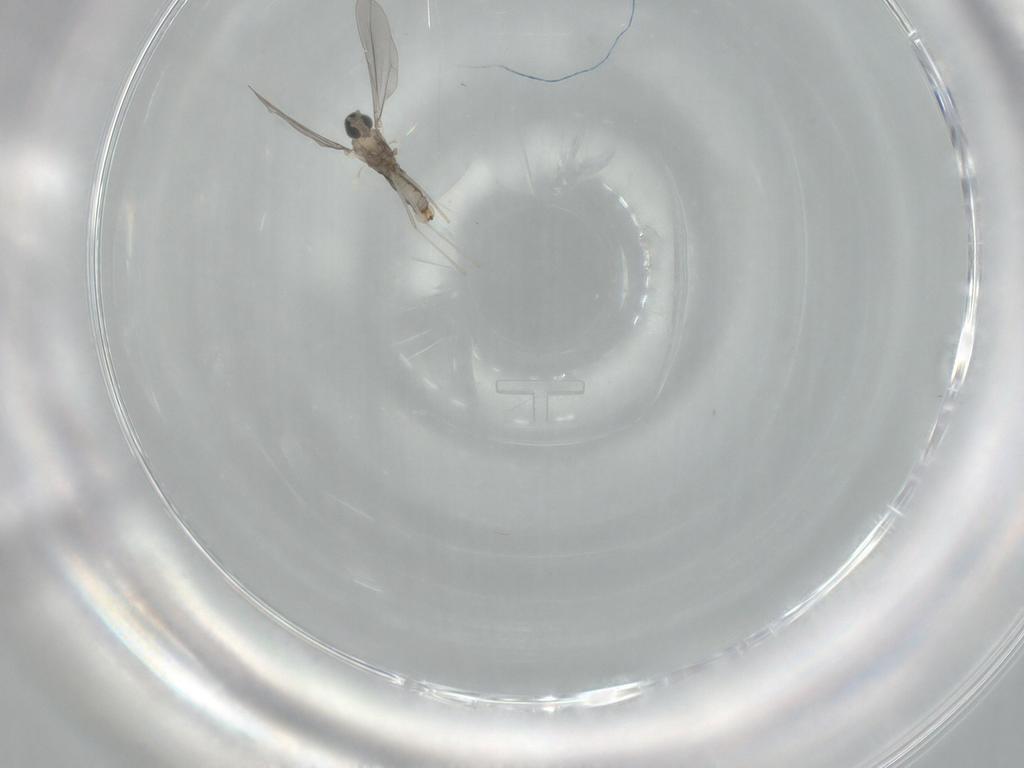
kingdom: Animalia
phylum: Arthropoda
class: Insecta
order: Diptera
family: Cecidomyiidae
